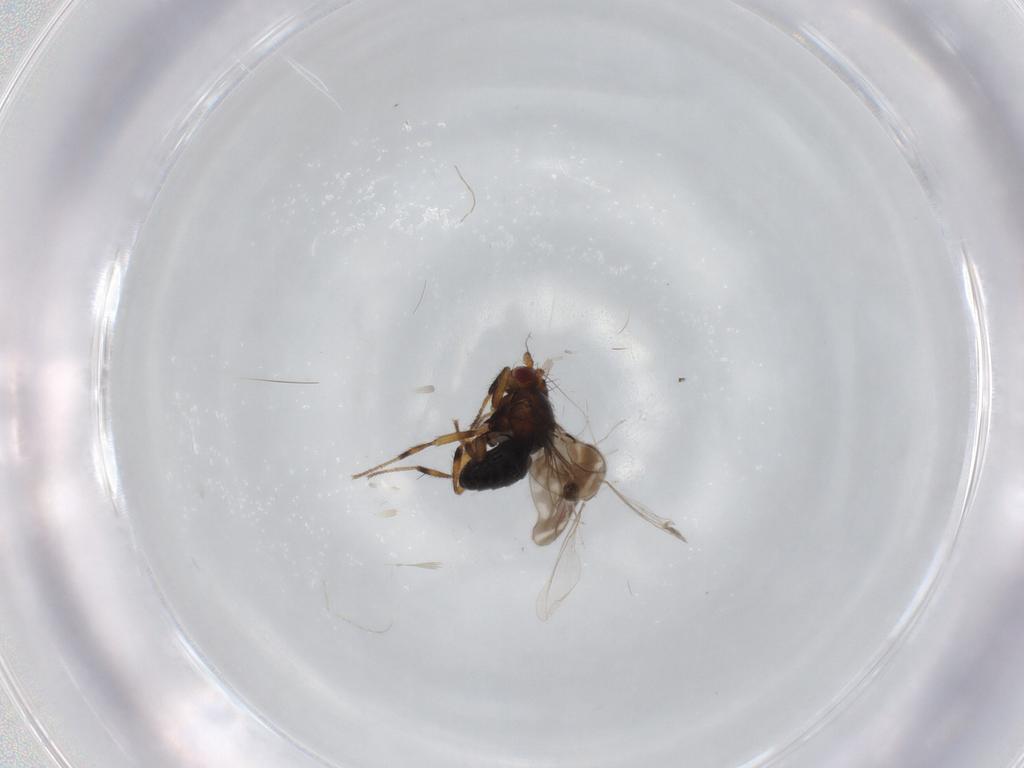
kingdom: Animalia
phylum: Arthropoda
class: Insecta
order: Diptera
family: Sphaeroceridae
